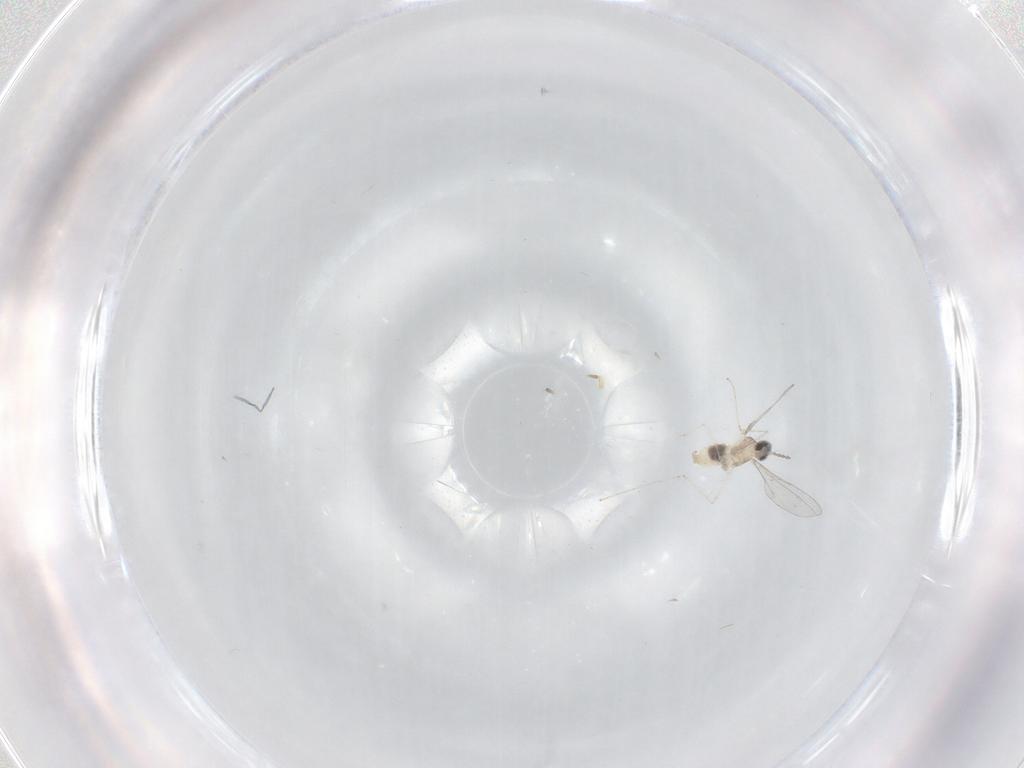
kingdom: Animalia
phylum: Arthropoda
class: Insecta
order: Diptera
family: Cecidomyiidae
